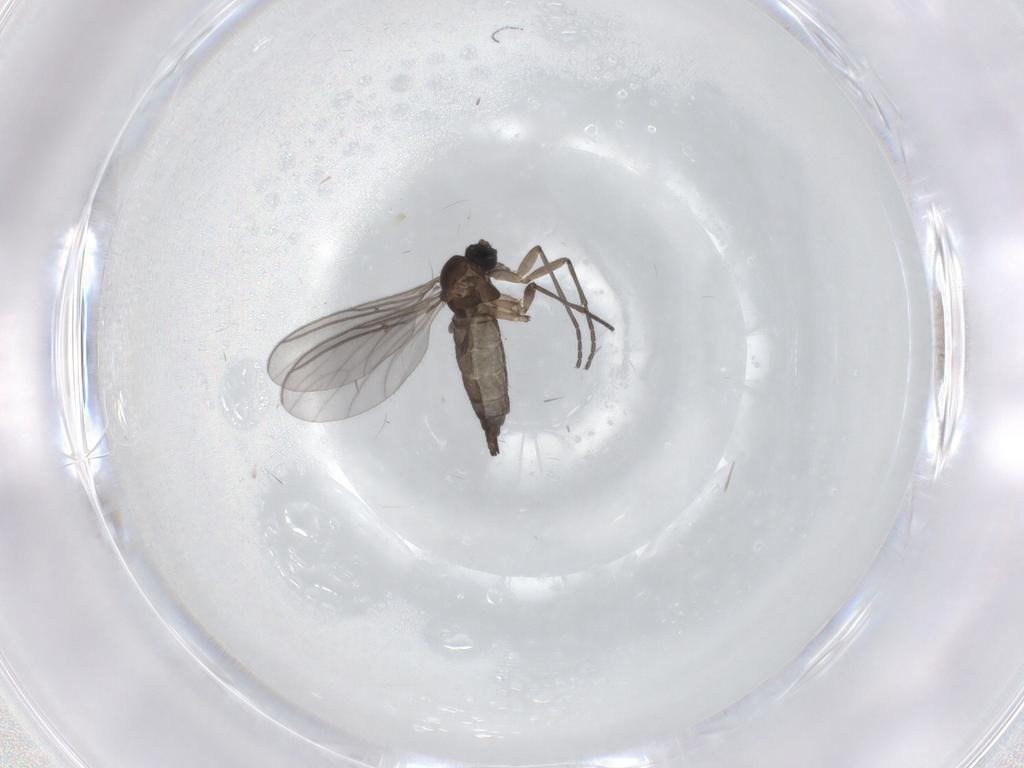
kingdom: Animalia
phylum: Arthropoda
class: Insecta
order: Diptera
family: Sciaridae
